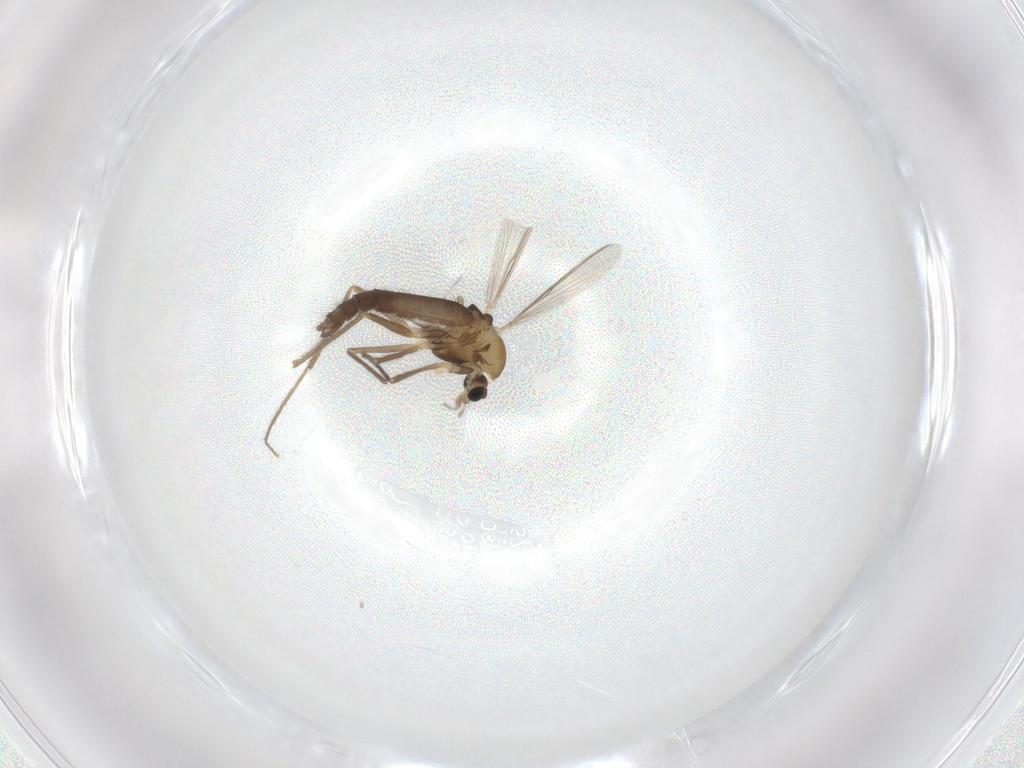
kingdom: Animalia
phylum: Arthropoda
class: Insecta
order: Diptera
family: Chironomidae
